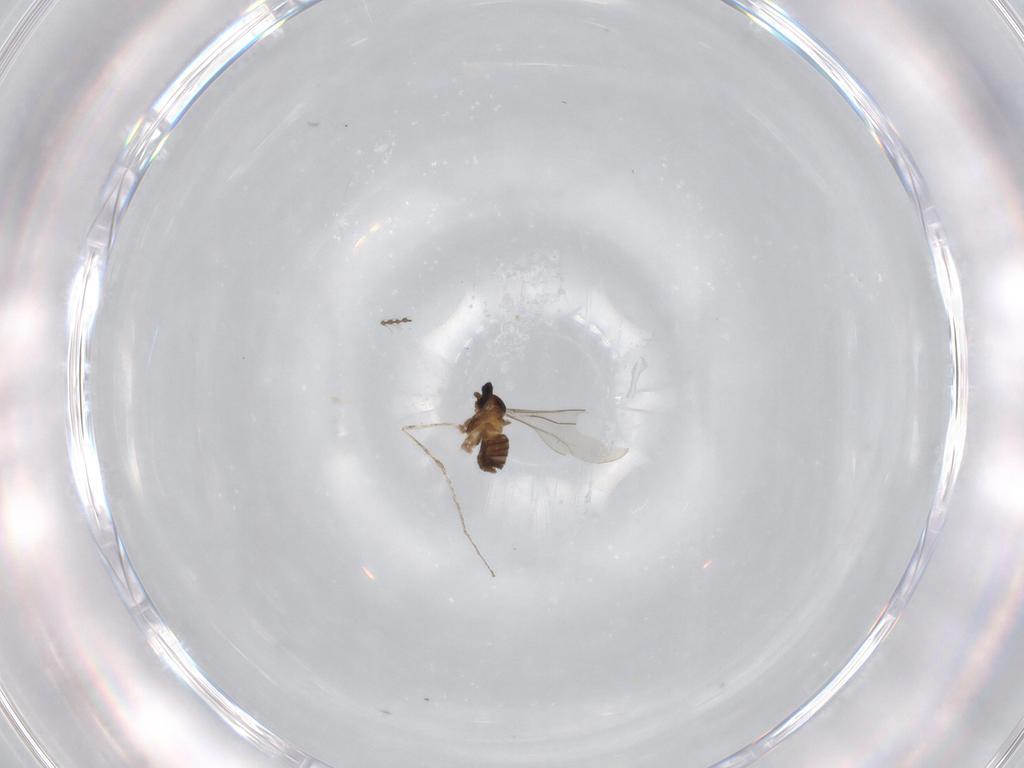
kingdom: Animalia
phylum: Arthropoda
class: Insecta
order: Diptera
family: Cecidomyiidae
